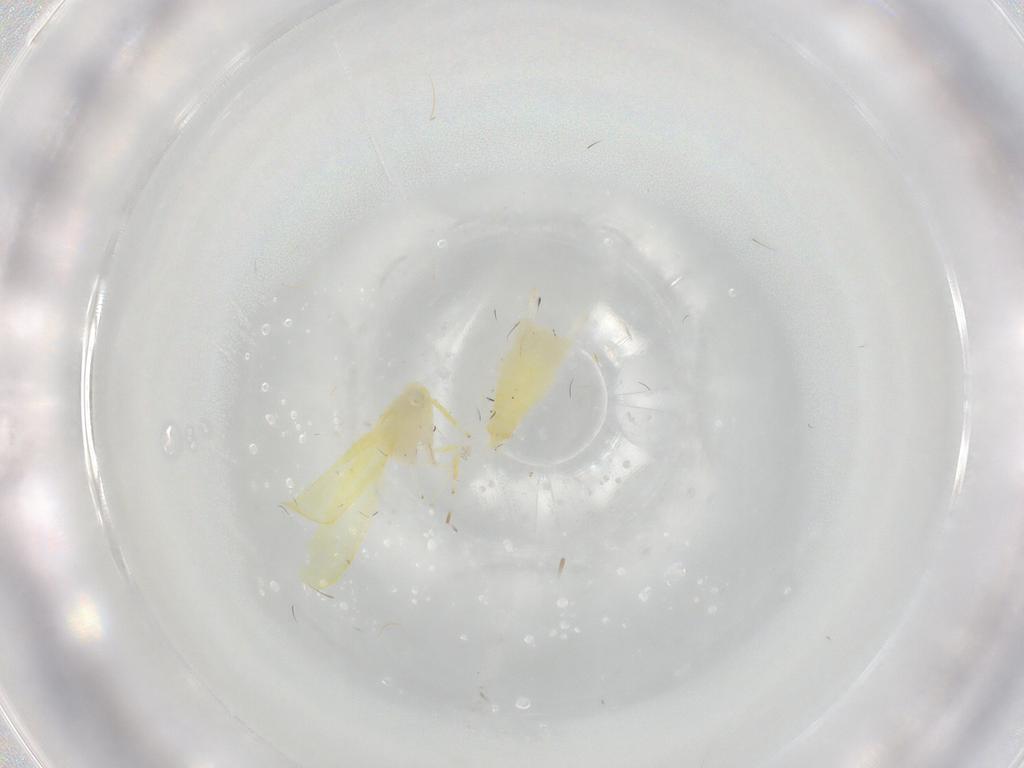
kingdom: Animalia
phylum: Arthropoda
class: Insecta
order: Hemiptera
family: Cicadellidae
